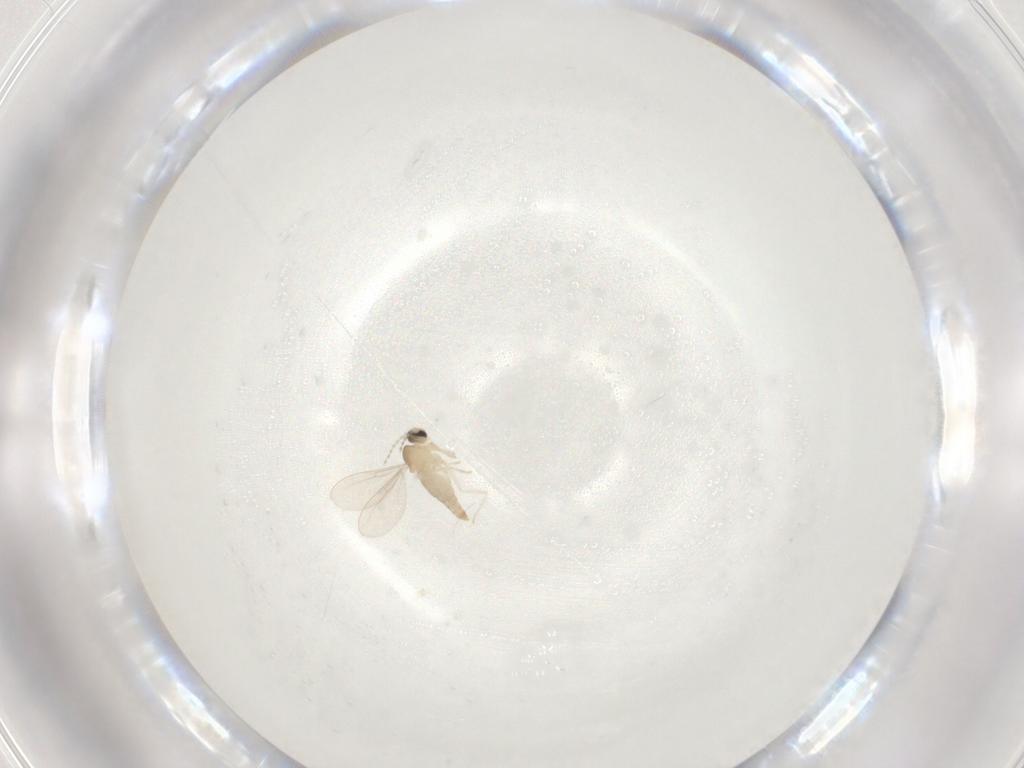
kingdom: Animalia
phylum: Arthropoda
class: Insecta
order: Diptera
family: Cecidomyiidae
